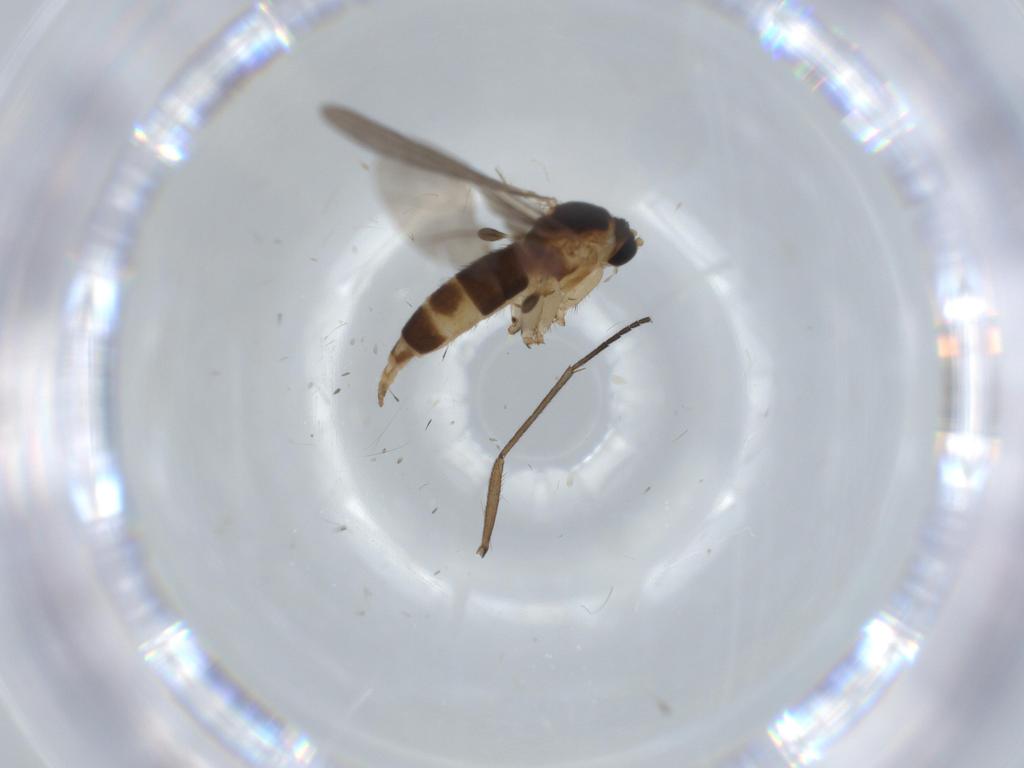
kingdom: Animalia
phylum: Arthropoda
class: Insecta
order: Diptera
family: Sciaridae
